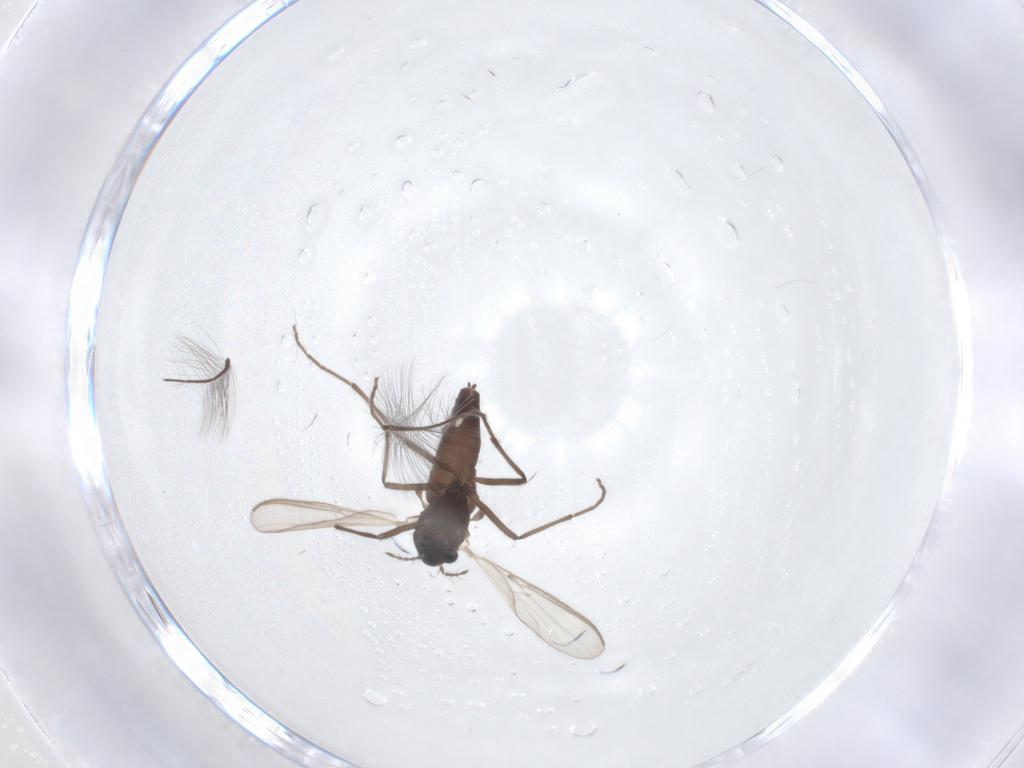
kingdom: Animalia
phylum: Arthropoda
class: Insecta
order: Diptera
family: Chironomidae
